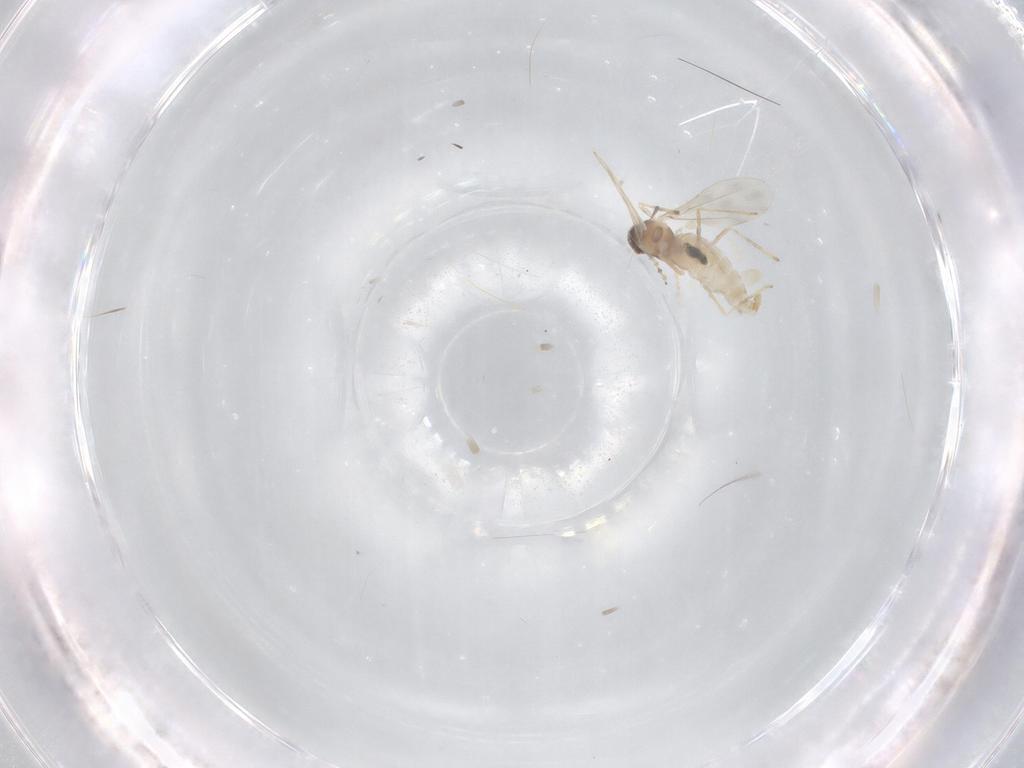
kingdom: Animalia
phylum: Arthropoda
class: Insecta
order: Diptera
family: Cecidomyiidae
